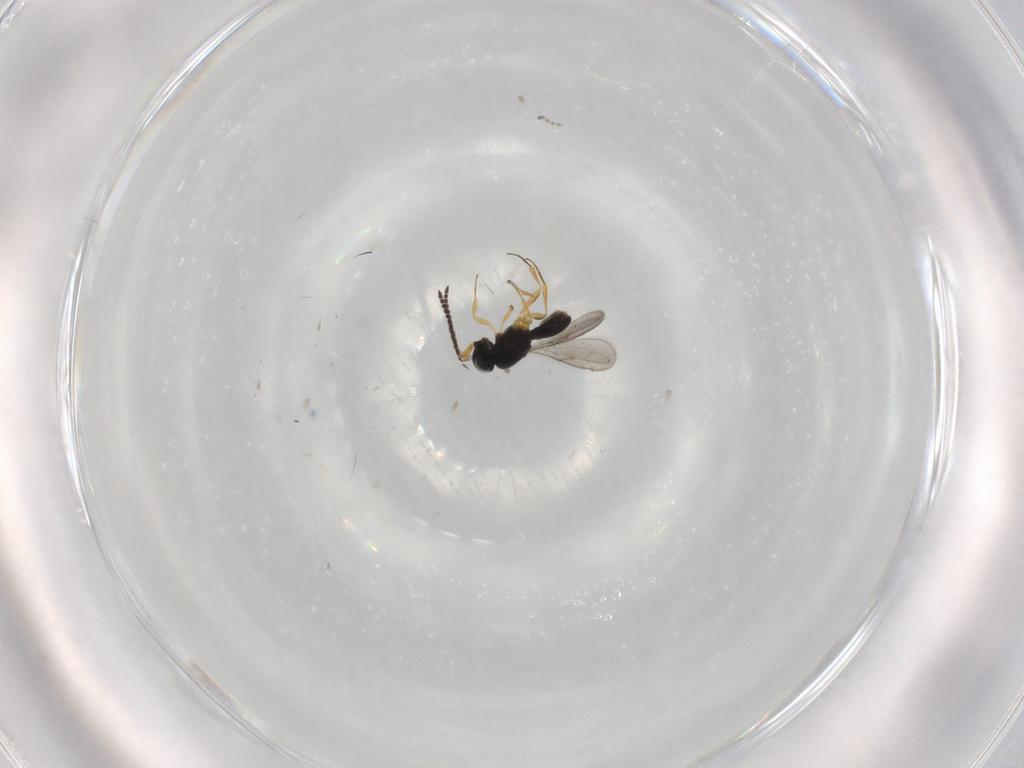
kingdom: Animalia
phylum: Arthropoda
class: Insecta
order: Hymenoptera
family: Scelionidae
